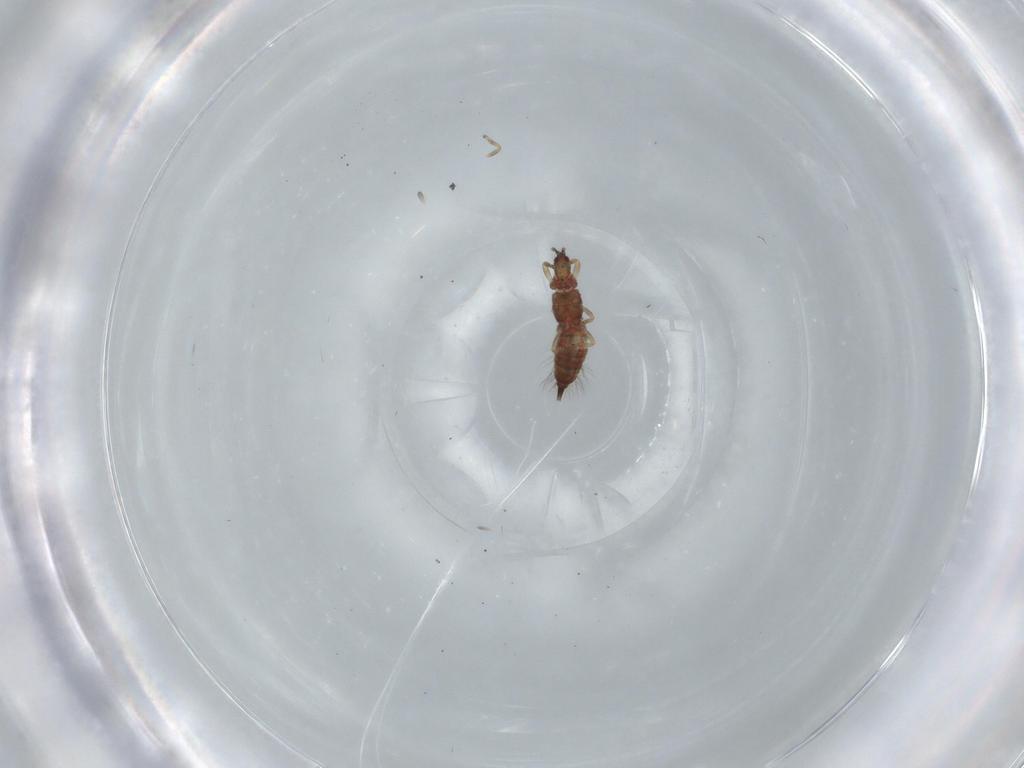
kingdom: Animalia
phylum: Arthropoda
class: Insecta
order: Thysanoptera
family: Phlaeothripidae
